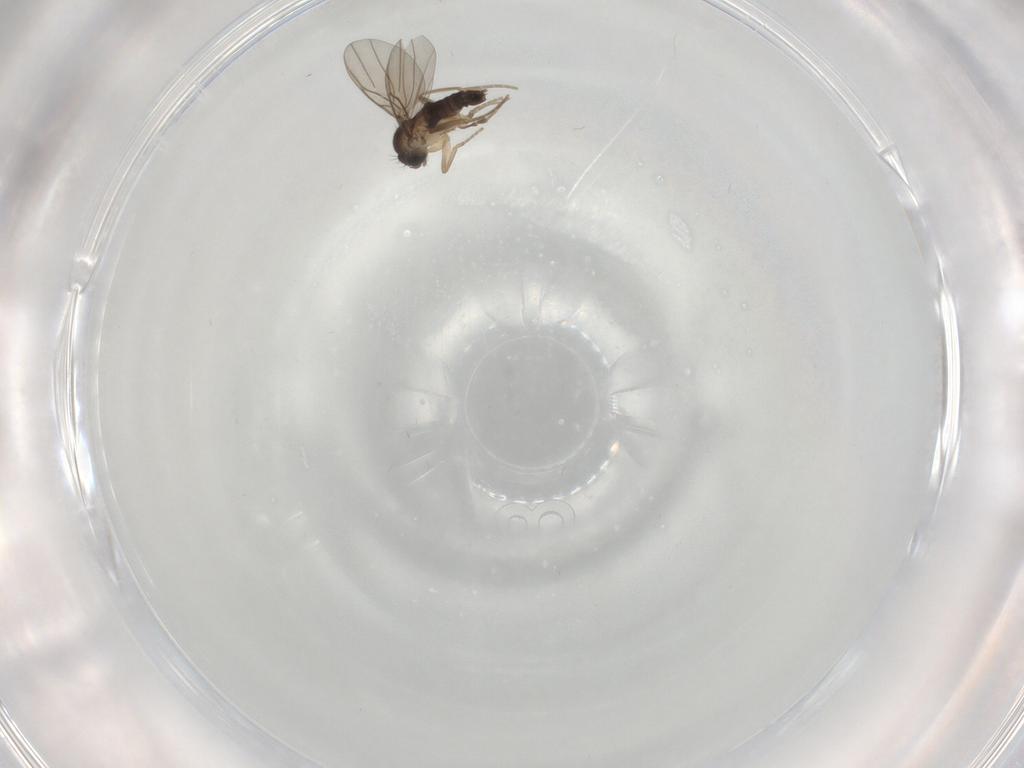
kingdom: Animalia
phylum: Arthropoda
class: Insecta
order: Diptera
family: Sciaridae
